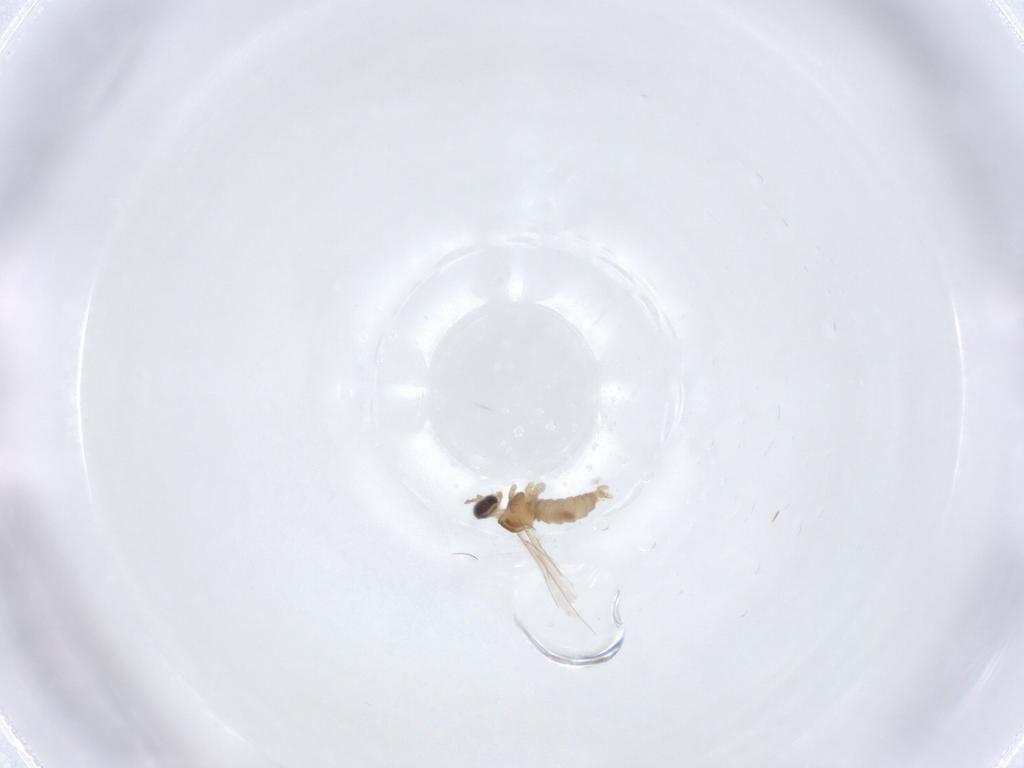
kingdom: Animalia
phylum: Arthropoda
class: Insecta
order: Diptera
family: Cecidomyiidae
